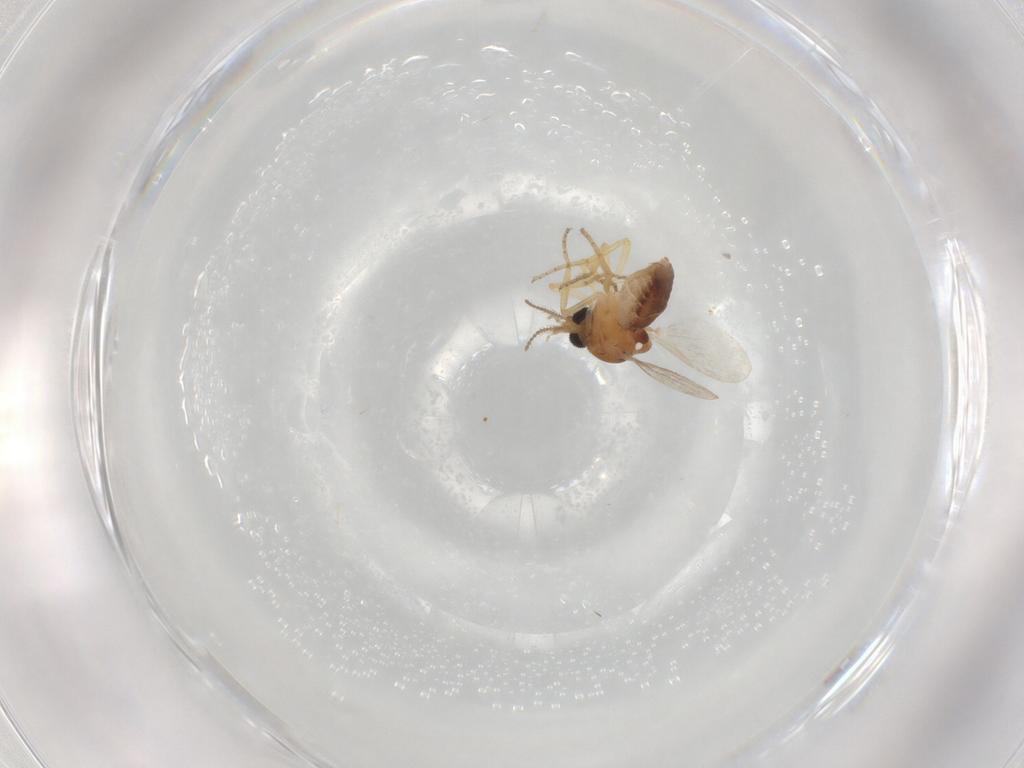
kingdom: Animalia
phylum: Arthropoda
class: Insecta
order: Diptera
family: Ceratopogonidae
